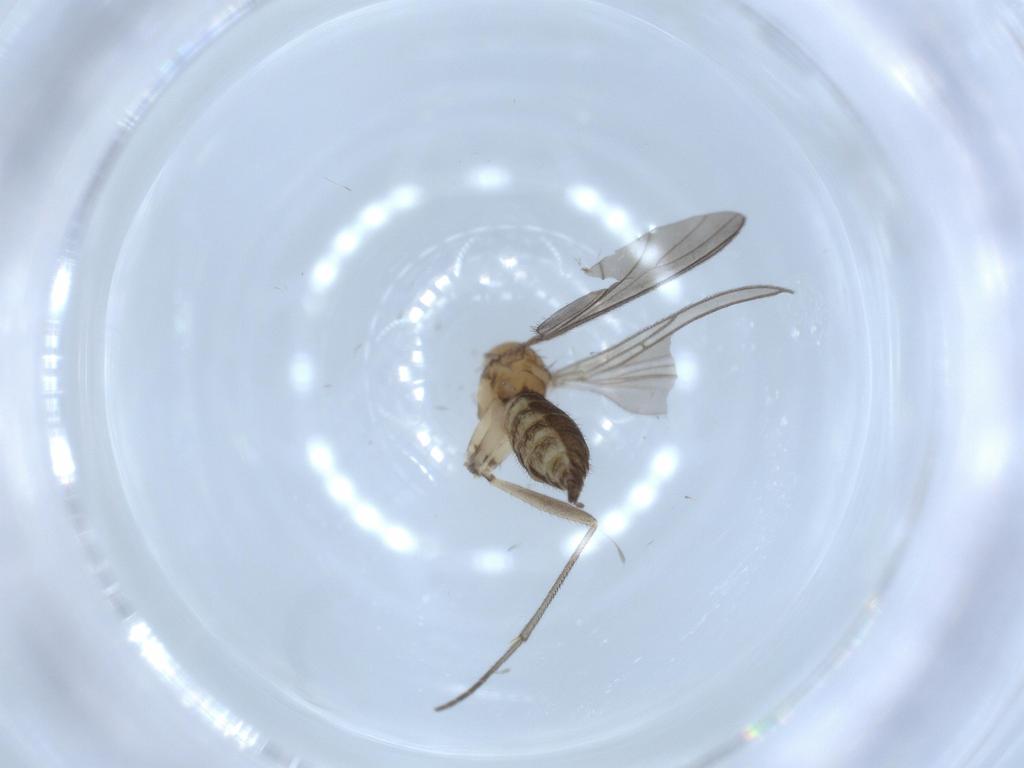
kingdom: Animalia
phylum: Arthropoda
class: Insecta
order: Diptera
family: Sciaridae
